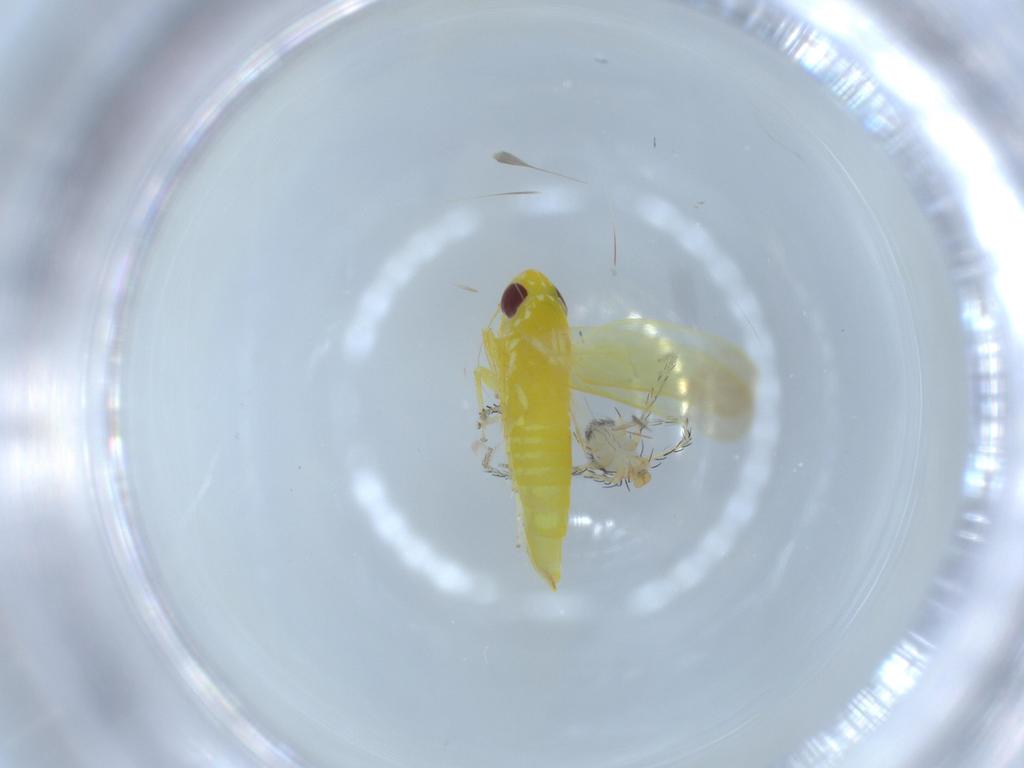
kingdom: Animalia
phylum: Arthropoda
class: Arachnida
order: Trombidiformes
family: Erythraeidae
